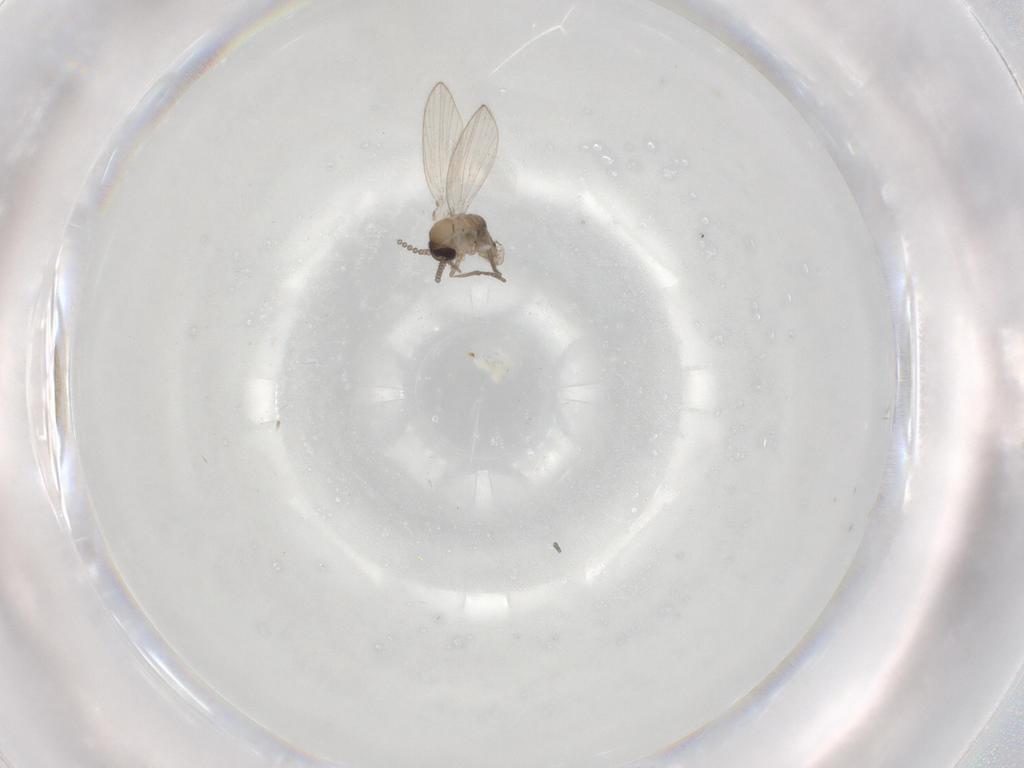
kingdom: Animalia
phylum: Arthropoda
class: Insecta
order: Diptera
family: Psychodidae
